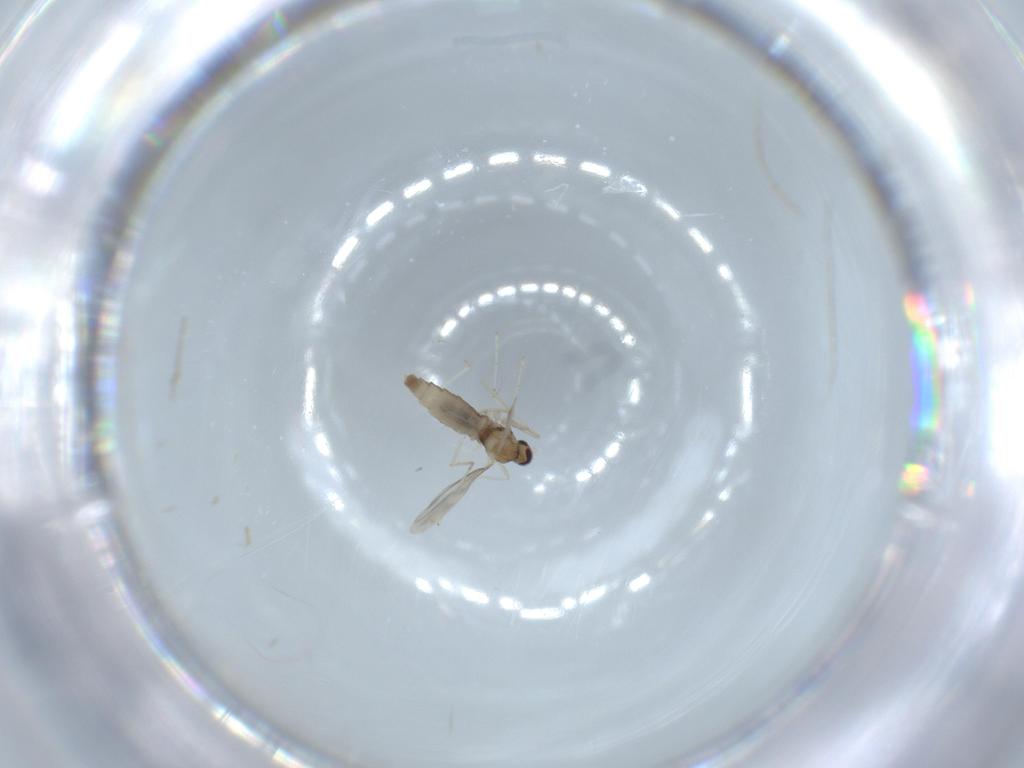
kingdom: Animalia
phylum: Arthropoda
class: Insecta
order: Diptera
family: Cecidomyiidae
